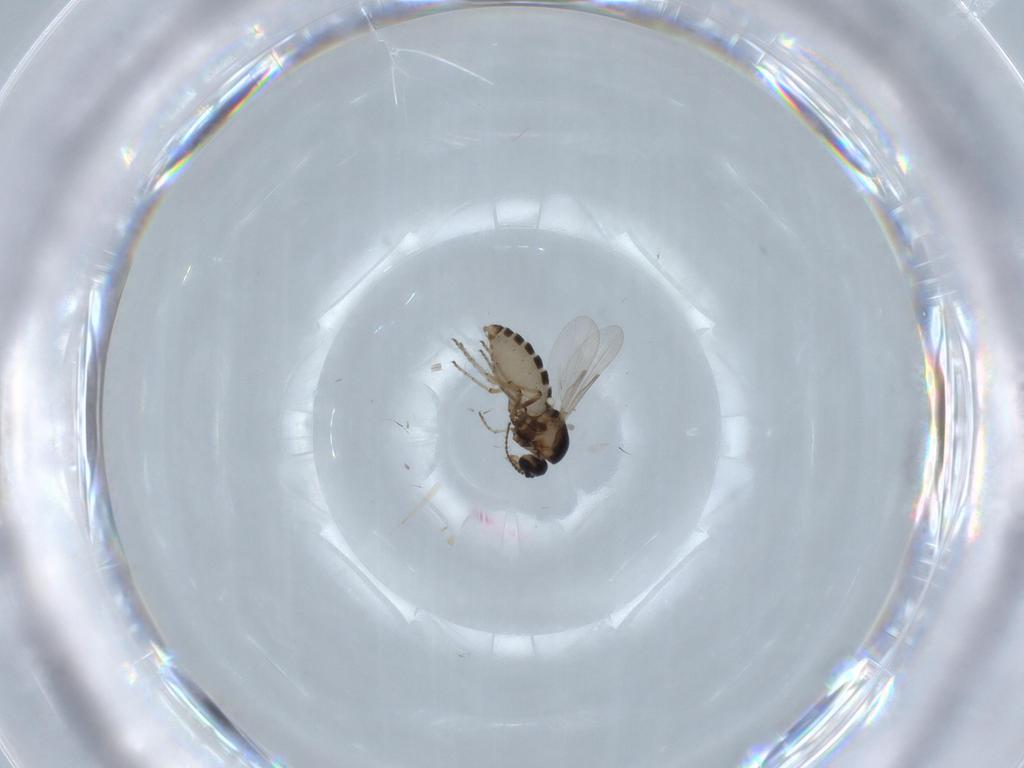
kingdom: Animalia
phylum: Arthropoda
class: Insecta
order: Diptera
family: Ceratopogonidae
